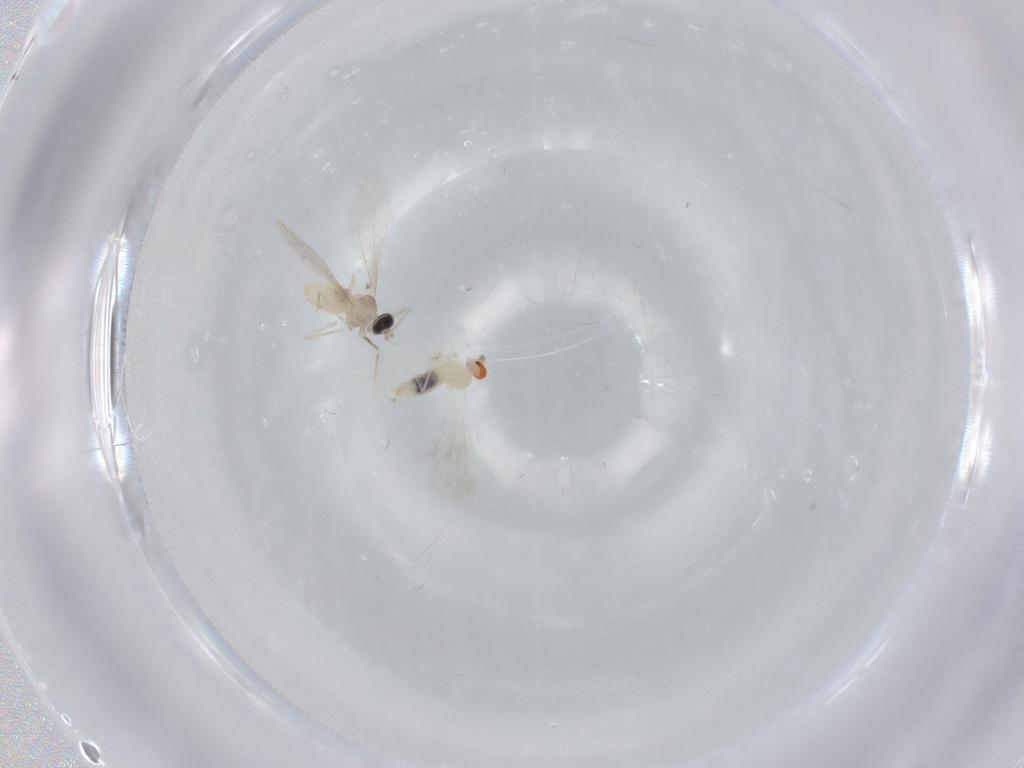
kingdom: Animalia
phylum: Arthropoda
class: Insecta
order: Diptera
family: Cecidomyiidae
